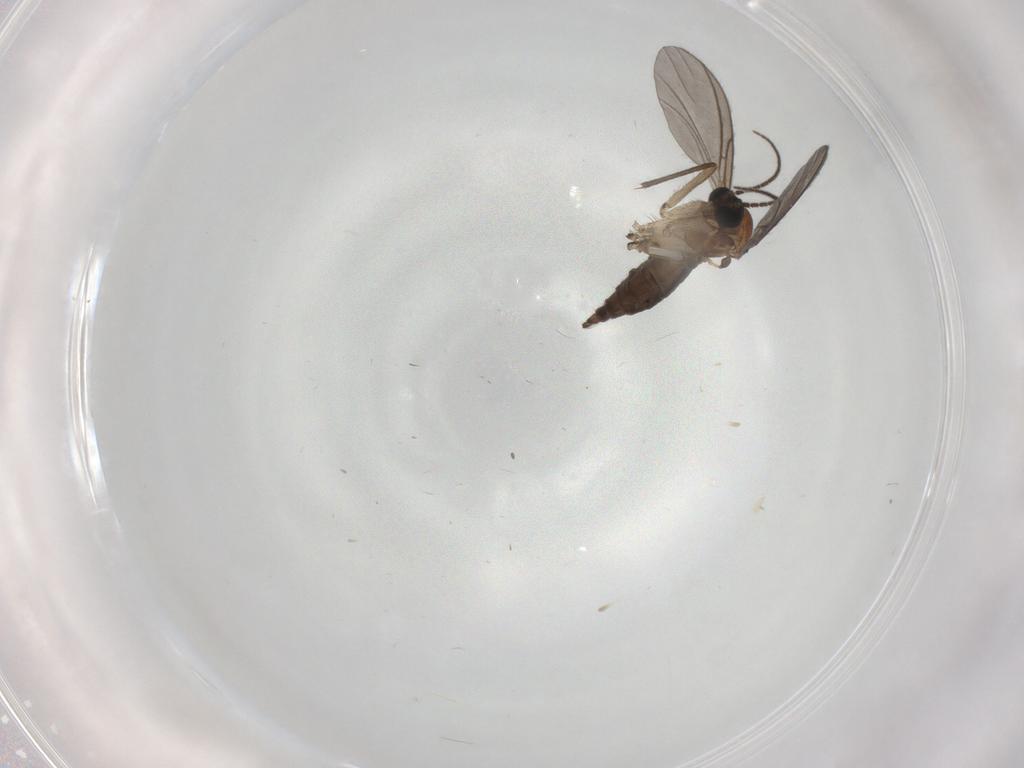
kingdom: Animalia
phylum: Arthropoda
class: Insecta
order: Diptera
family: Sciaridae
